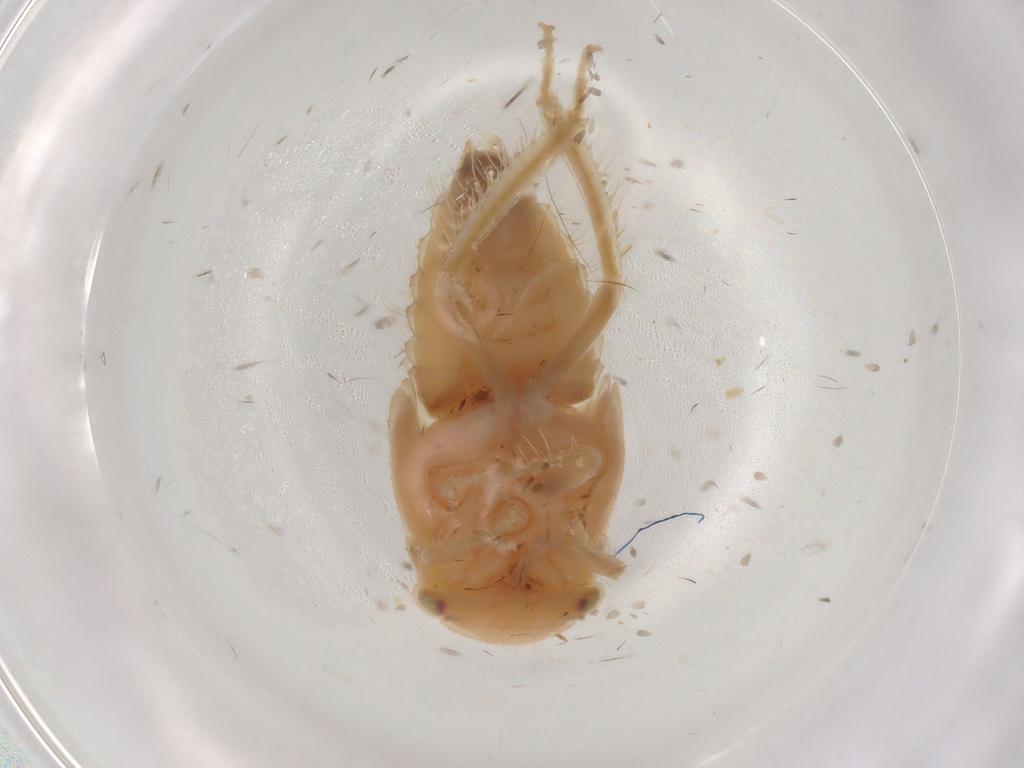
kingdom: Animalia
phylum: Arthropoda
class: Insecta
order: Hemiptera
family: Cicadellidae
